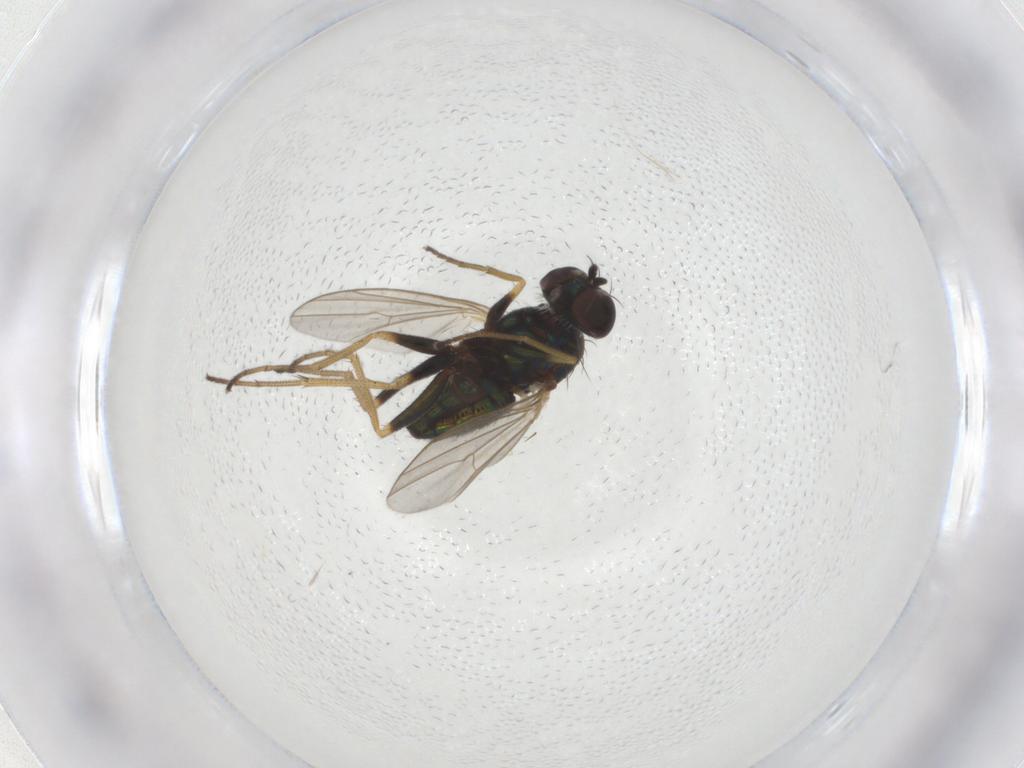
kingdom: Animalia
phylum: Arthropoda
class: Insecta
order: Diptera
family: Dolichopodidae
